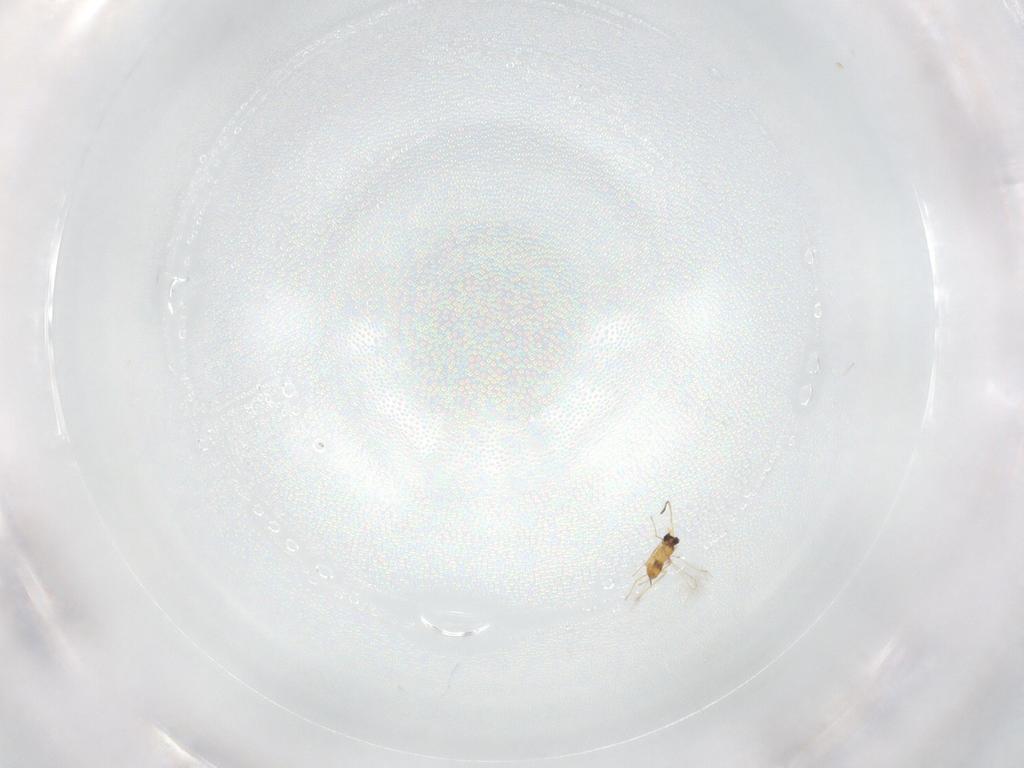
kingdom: Animalia
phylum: Arthropoda
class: Insecta
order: Hymenoptera
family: Mymaridae
